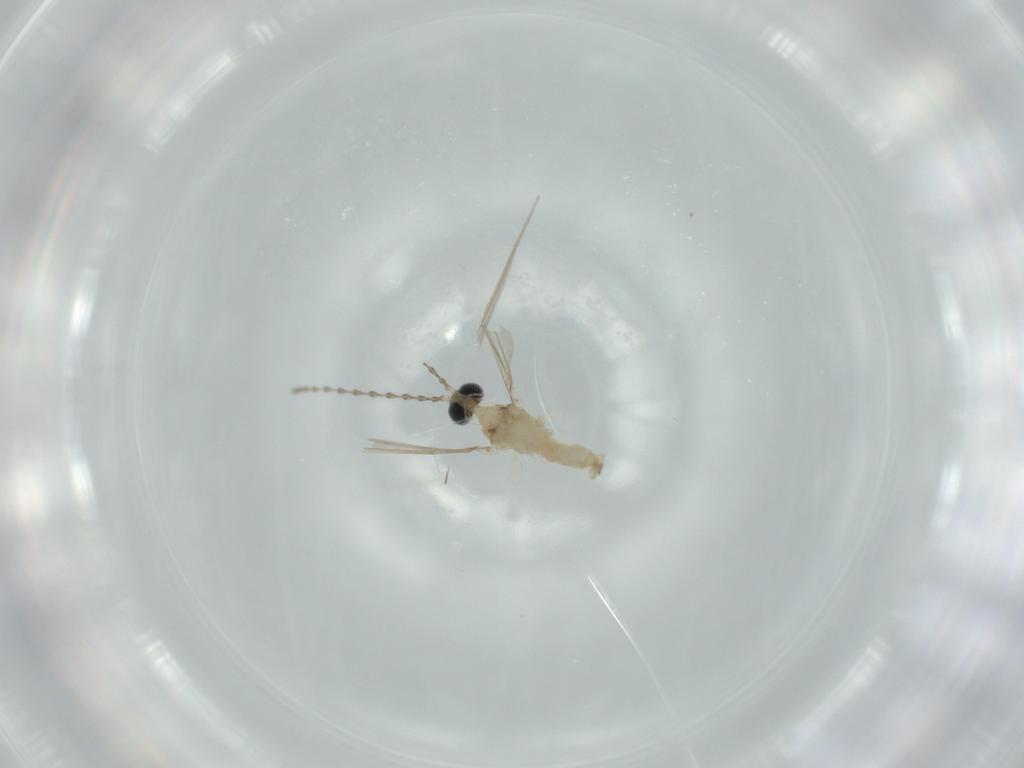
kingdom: Animalia
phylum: Arthropoda
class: Insecta
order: Diptera
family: Cecidomyiidae
